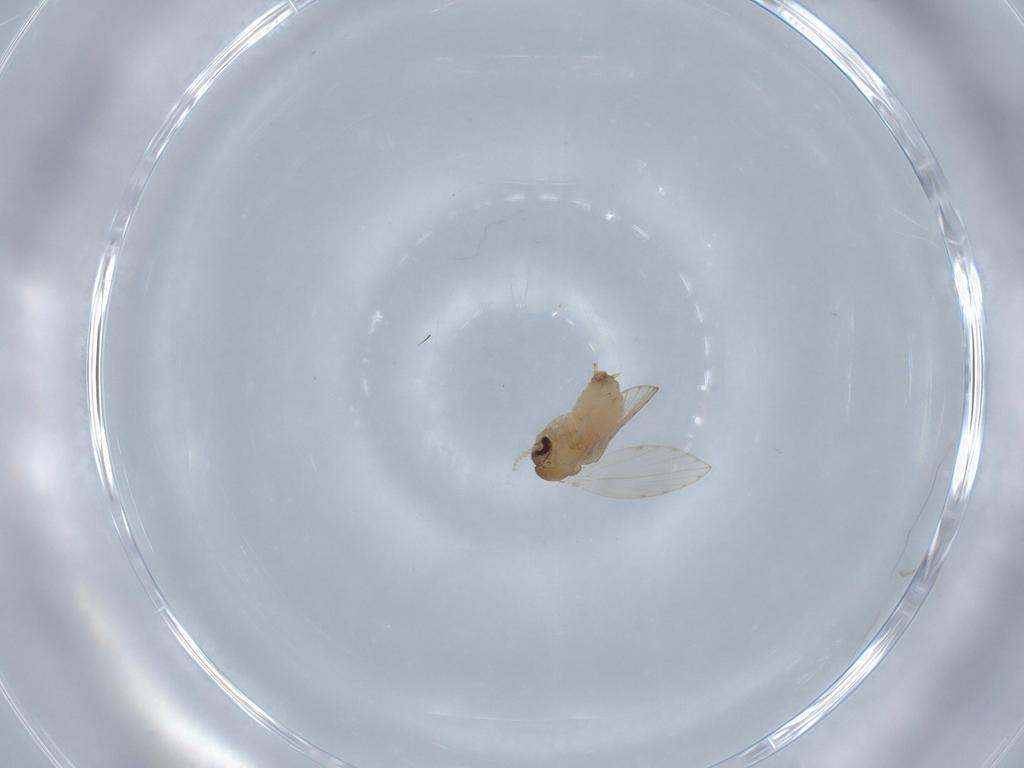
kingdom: Animalia
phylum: Arthropoda
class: Insecta
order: Diptera
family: Psychodidae
